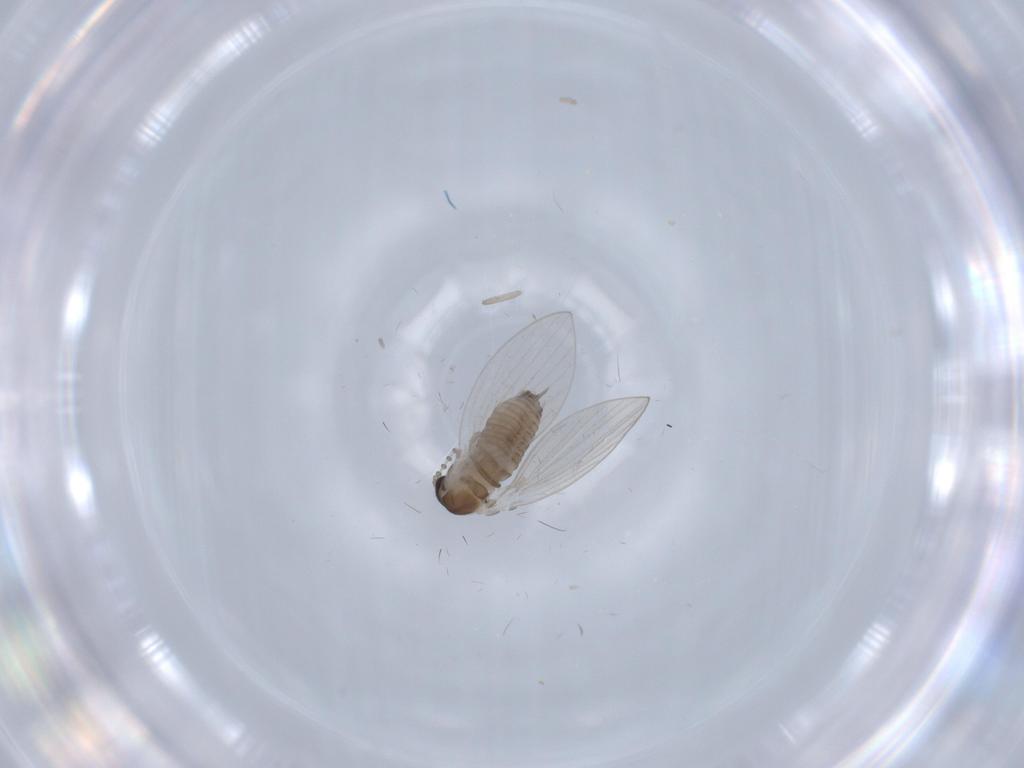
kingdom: Animalia
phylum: Arthropoda
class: Insecta
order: Diptera
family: Psychodidae
